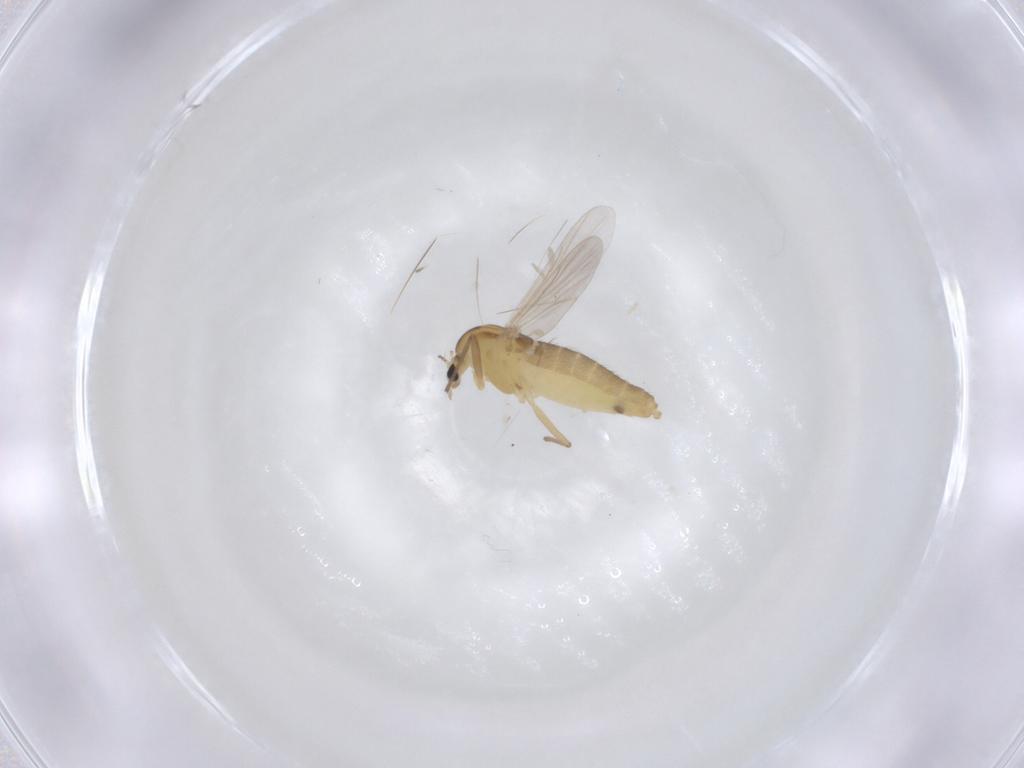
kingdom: Animalia
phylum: Arthropoda
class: Insecta
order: Diptera
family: Chironomidae
